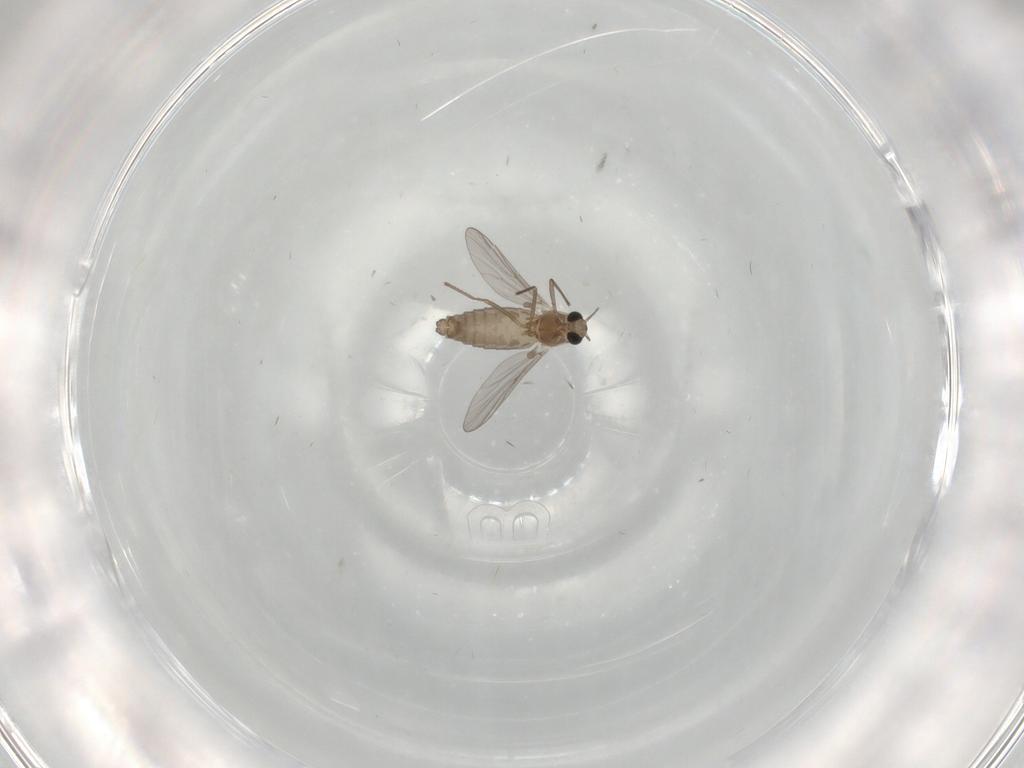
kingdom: Animalia
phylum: Arthropoda
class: Insecta
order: Diptera
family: Chironomidae
